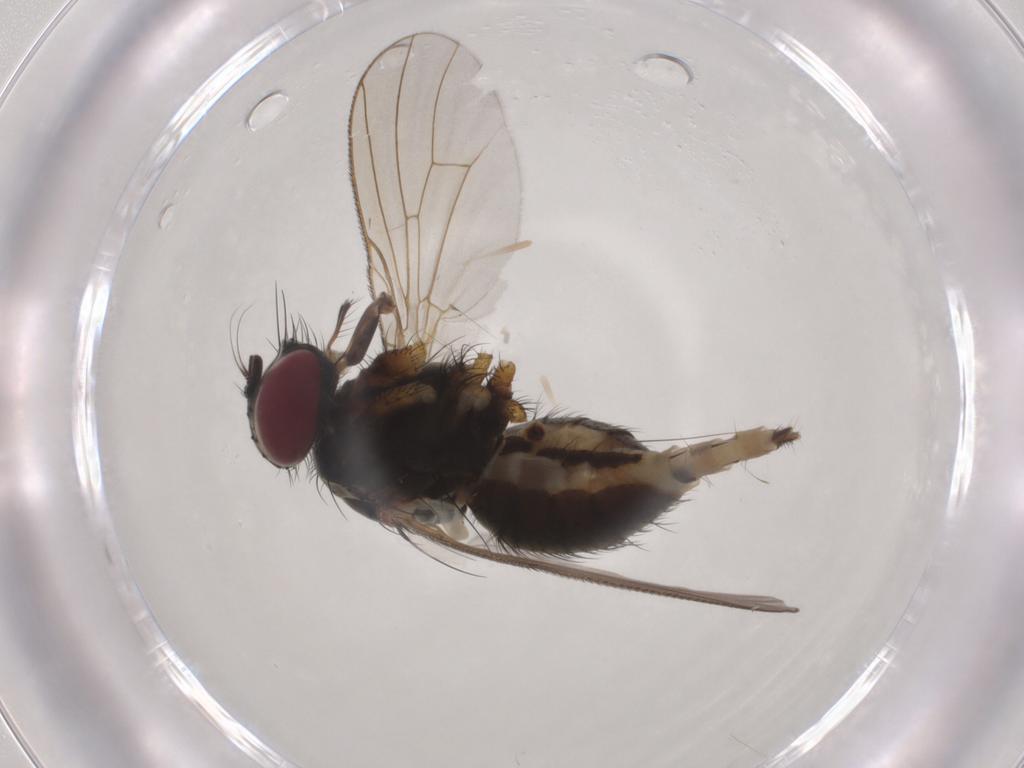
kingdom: Animalia
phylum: Arthropoda
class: Insecta
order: Diptera
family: Muscidae
